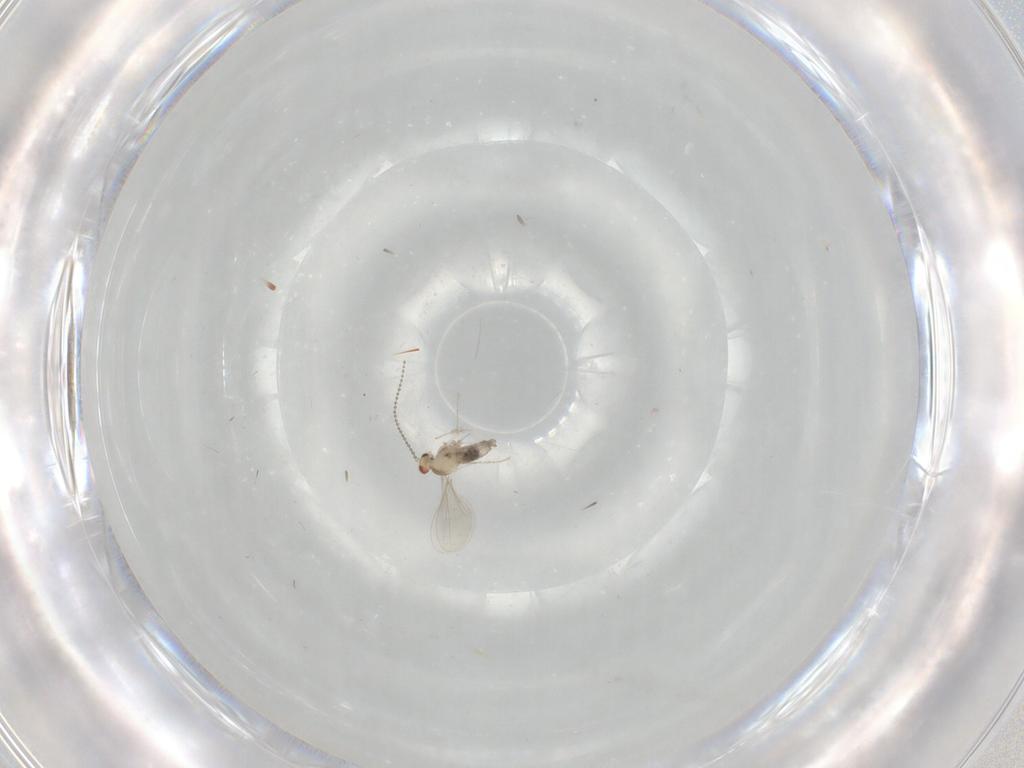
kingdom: Animalia
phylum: Arthropoda
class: Insecta
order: Diptera
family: Cecidomyiidae
